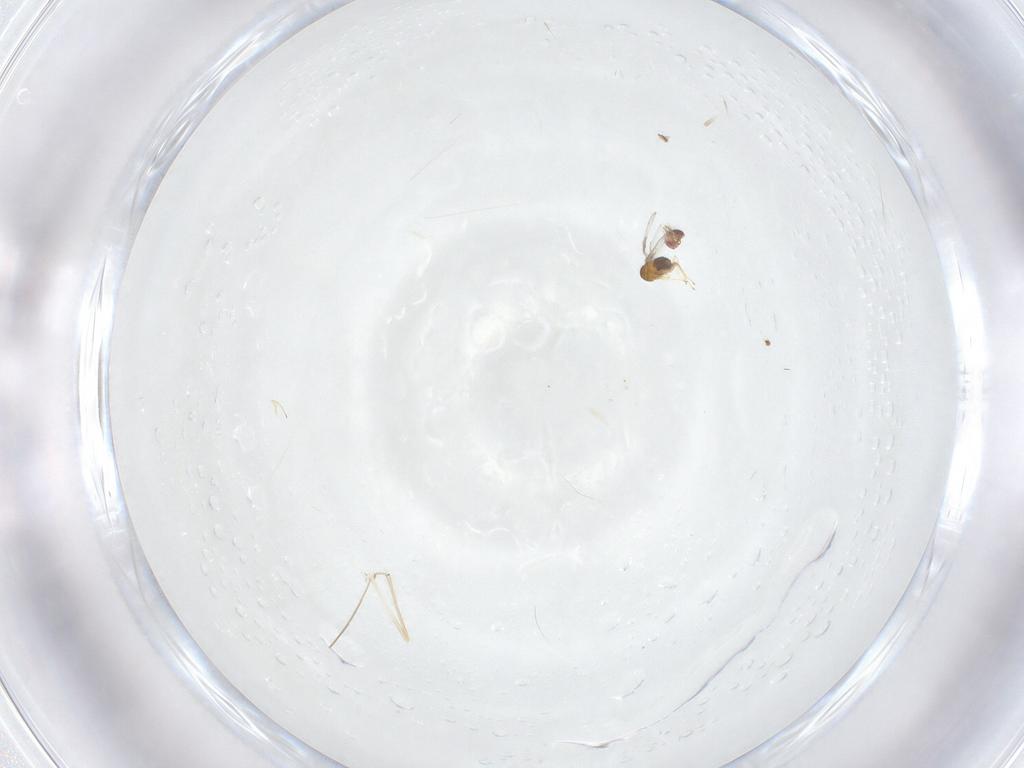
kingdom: Animalia
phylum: Arthropoda
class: Insecta
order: Hymenoptera
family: Trichogrammatidae
